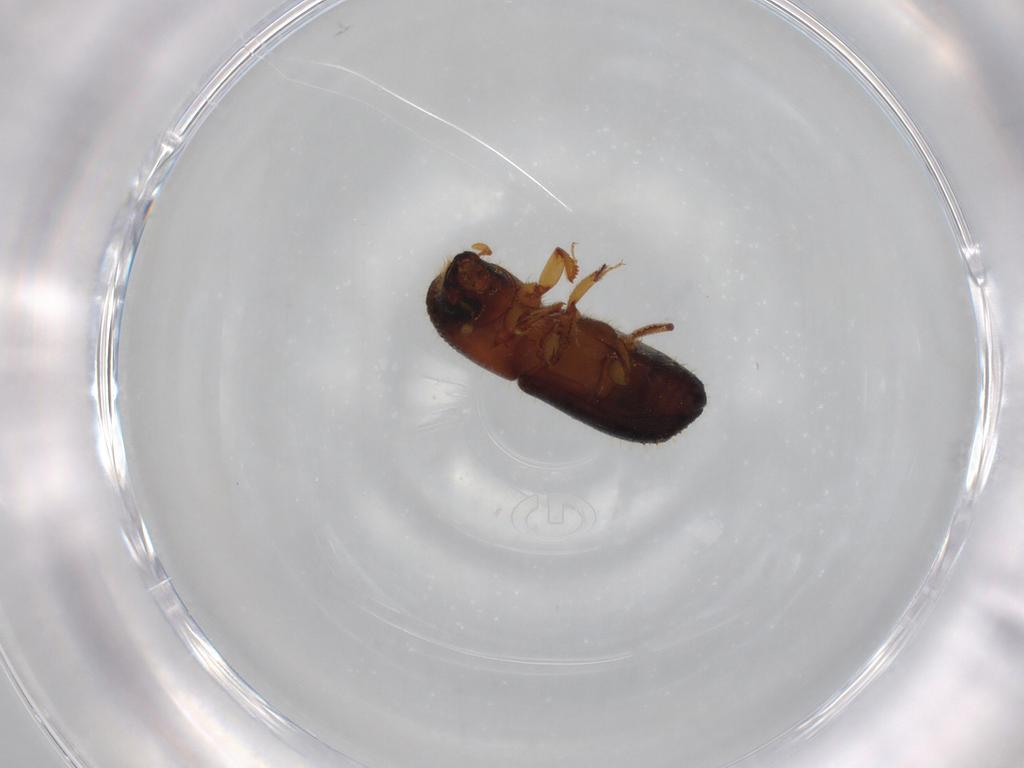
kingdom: Animalia
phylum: Arthropoda
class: Insecta
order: Coleoptera
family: Curculionidae
